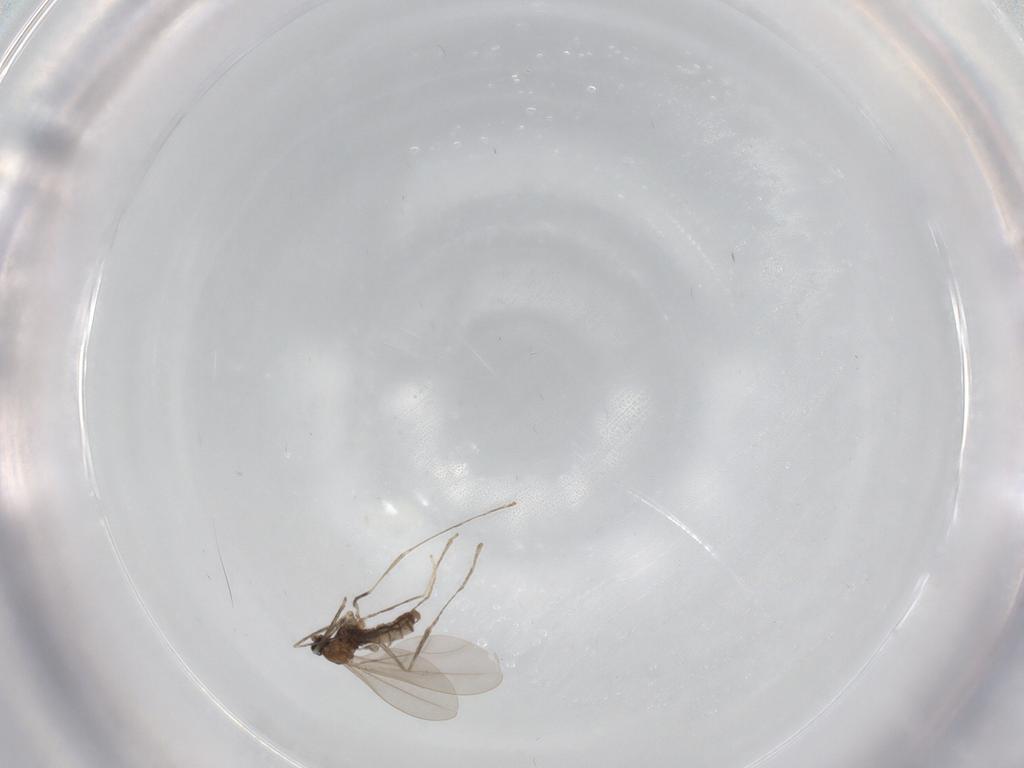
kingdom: Animalia
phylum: Arthropoda
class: Insecta
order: Diptera
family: Cecidomyiidae
